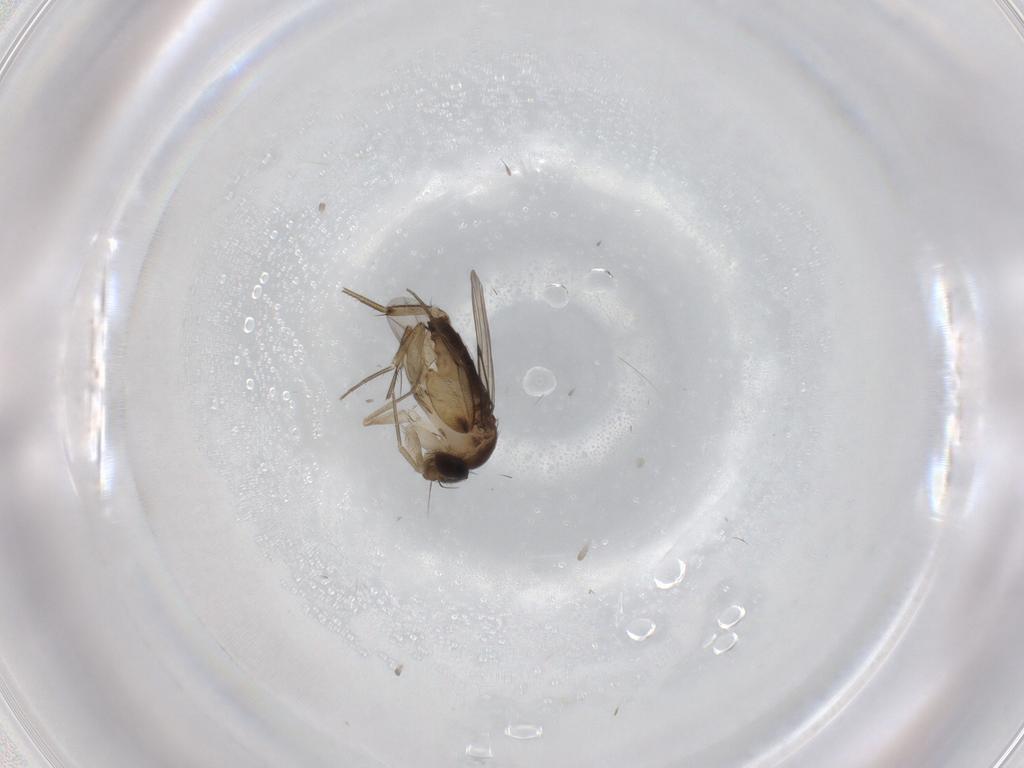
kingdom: Animalia
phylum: Arthropoda
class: Insecta
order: Diptera
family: Phoridae
